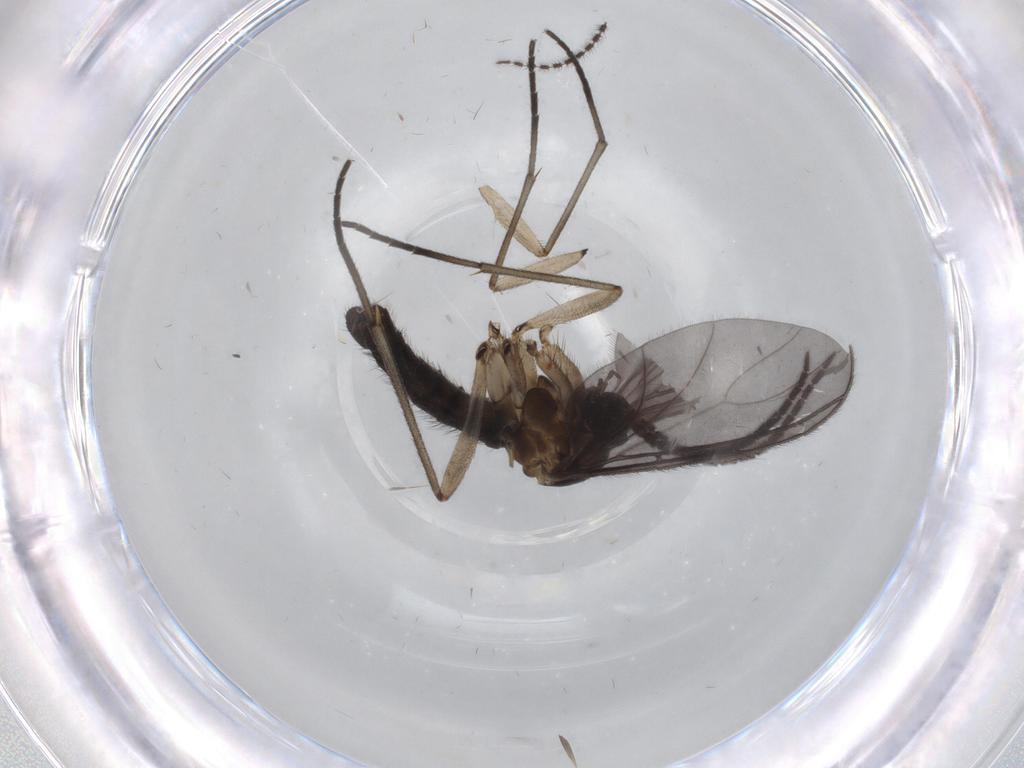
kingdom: Animalia
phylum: Arthropoda
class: Insecta
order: Diptera
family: Sciaridae
